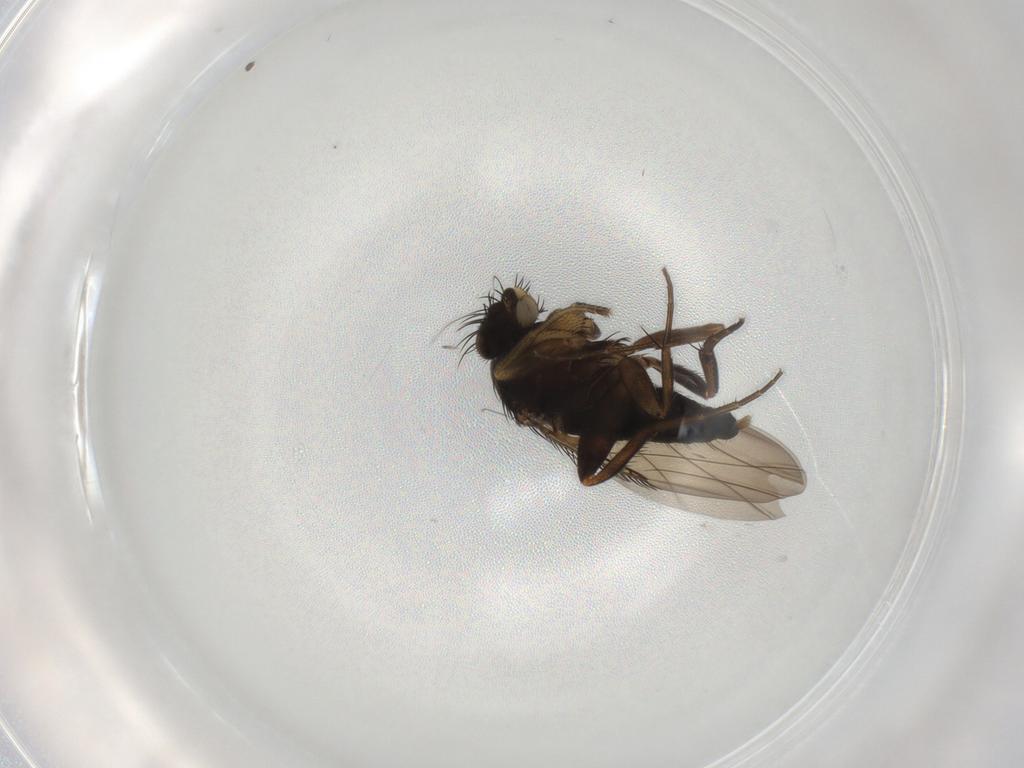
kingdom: Animalia
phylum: Arthropoda
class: Insecta
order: Diptera
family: Phoridae
